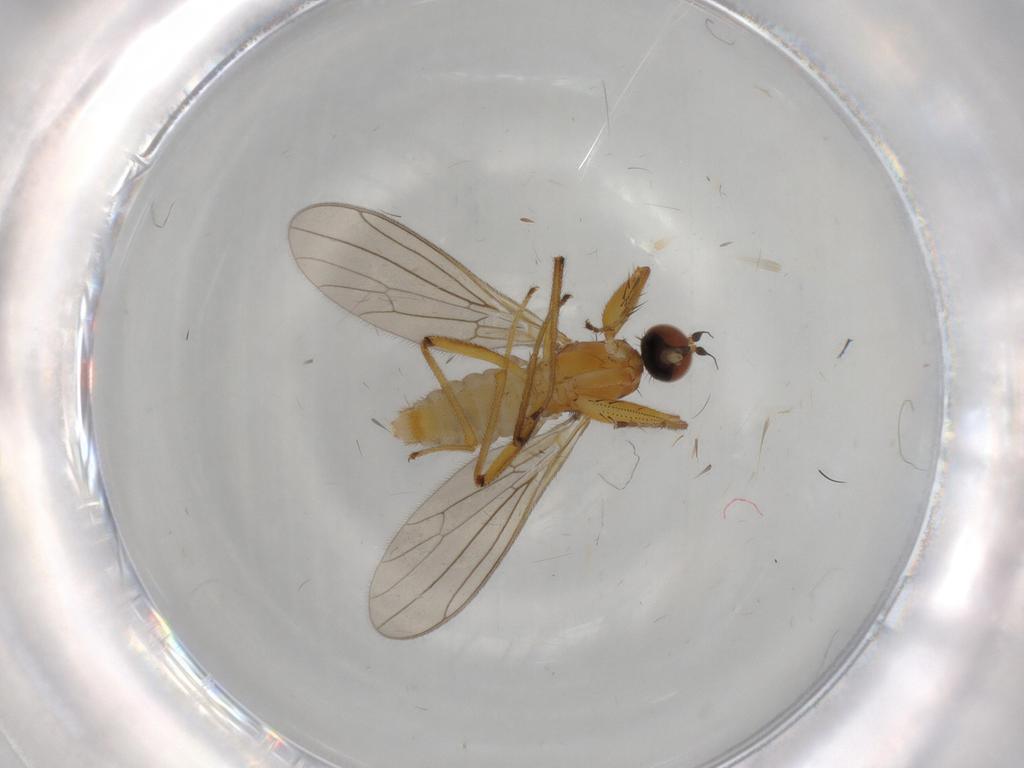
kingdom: Animalia
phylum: Arthropoda
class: Insecta
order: Diptera
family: Empididae
